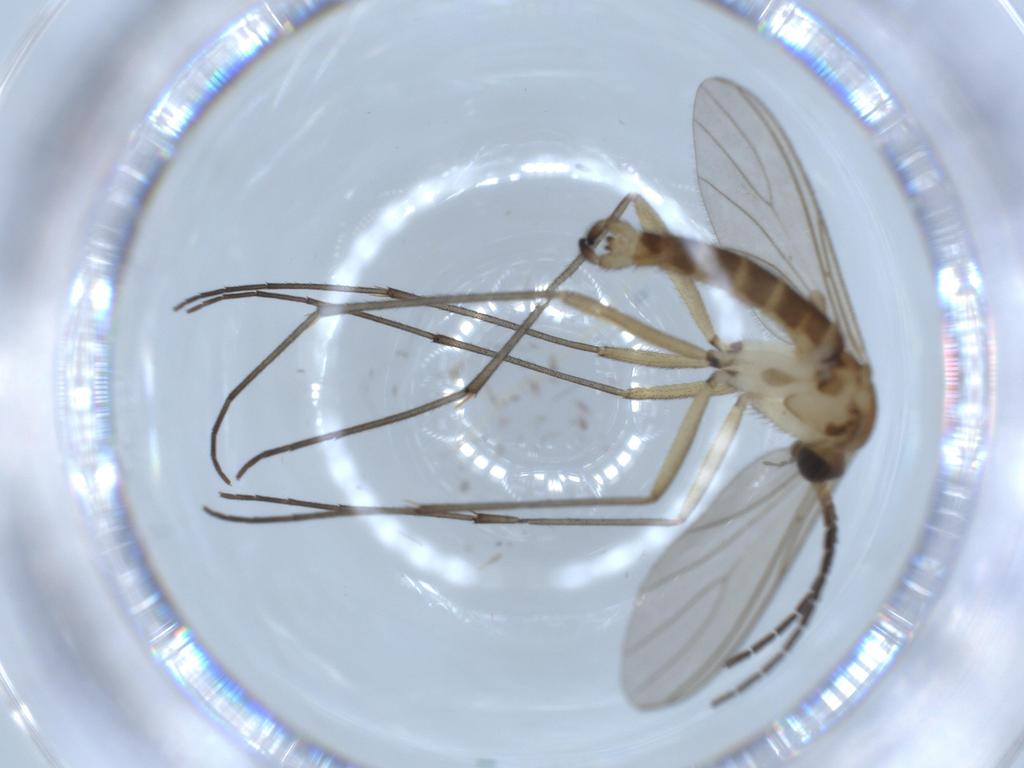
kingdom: Animalia
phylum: Arthropoda
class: Insecta
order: Diptera
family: Sciaridae
